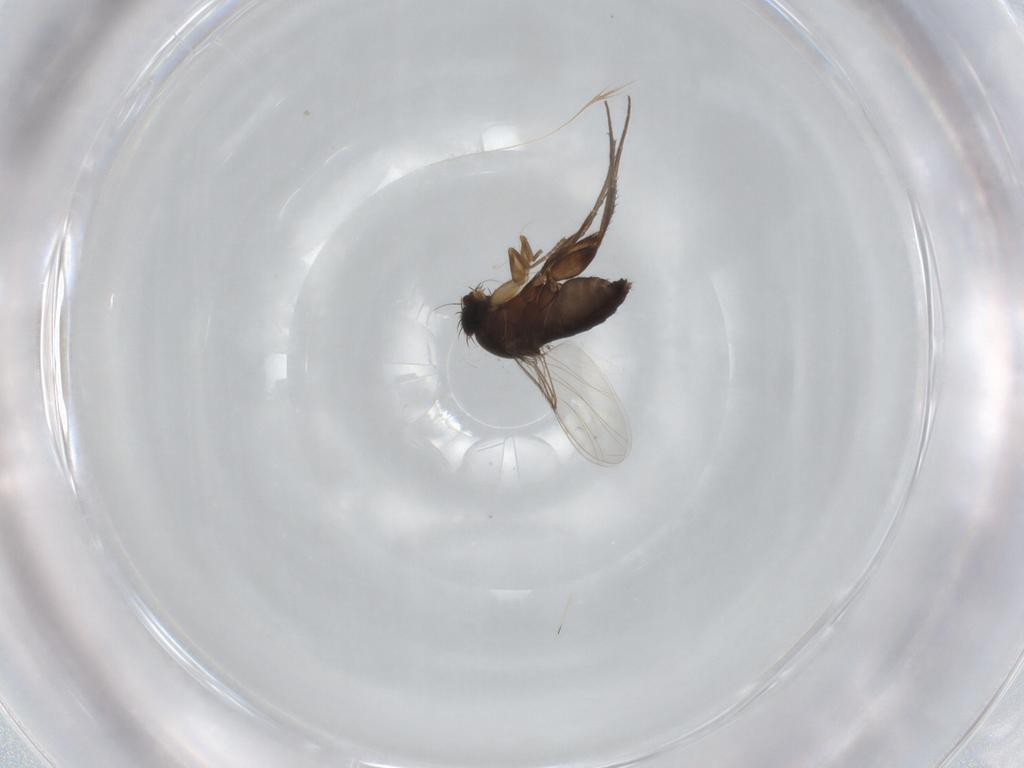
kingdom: Animalia
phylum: Arthropoda
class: Insecta
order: Diptera
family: Phoridae
